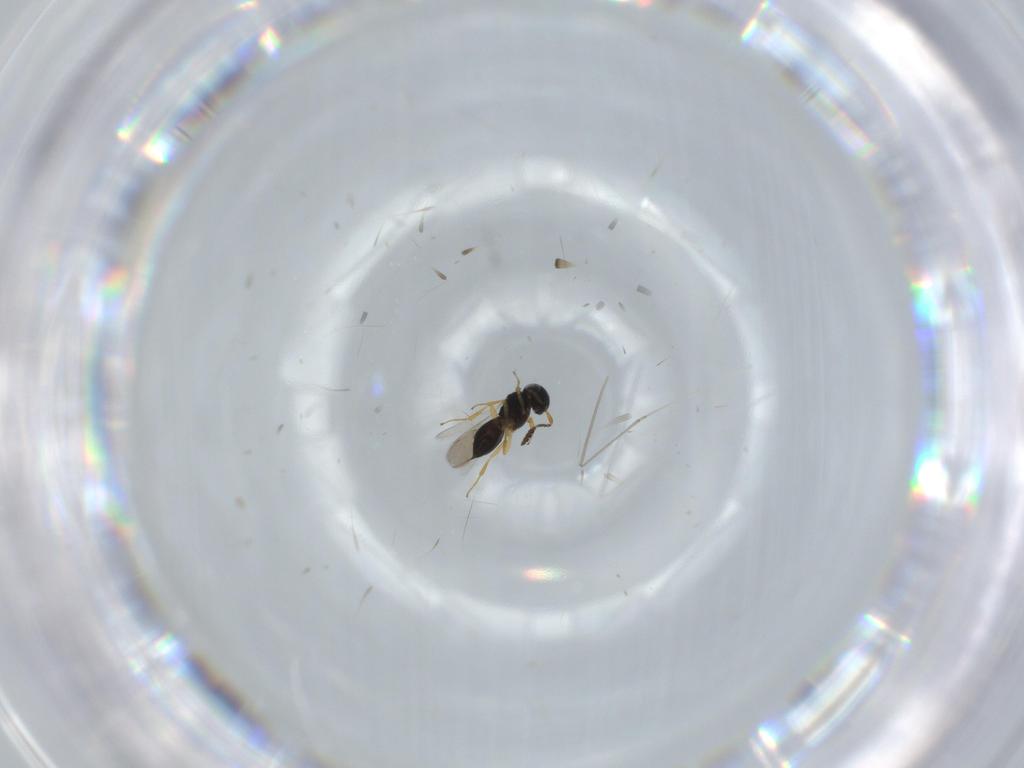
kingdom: Animalia
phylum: Arthropoda
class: Insecta
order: Hymenoptera
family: Scelionidae
